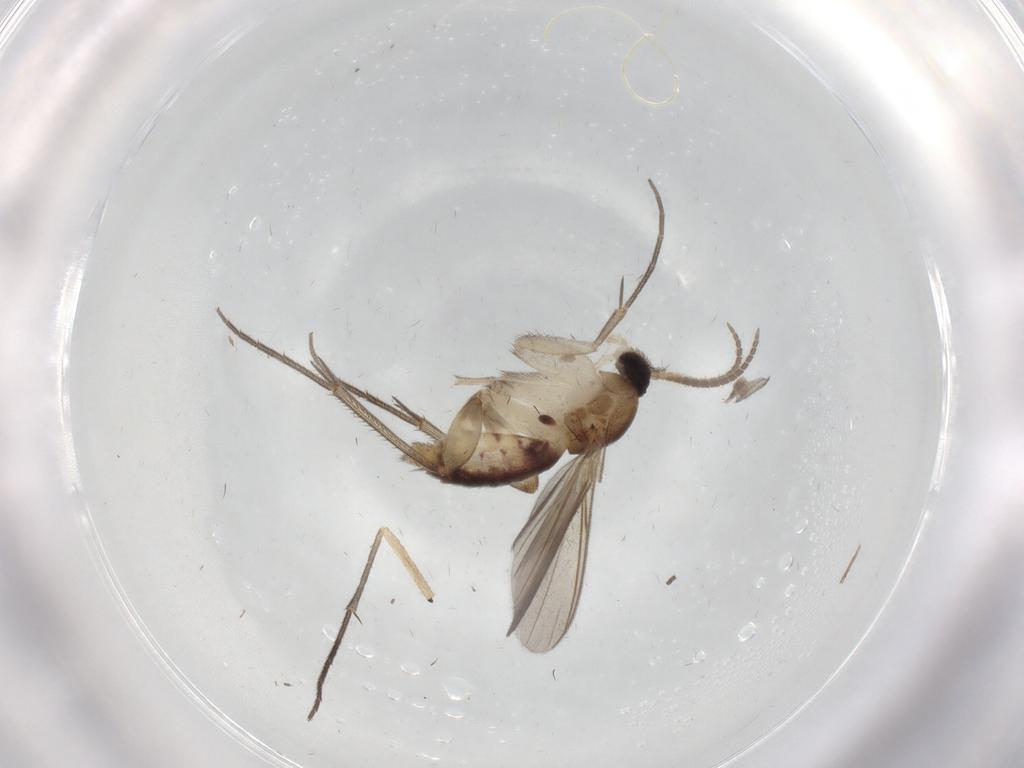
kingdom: Animalia
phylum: Arthropoda
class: Insecta
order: Diptera
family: Mycetophilidae
